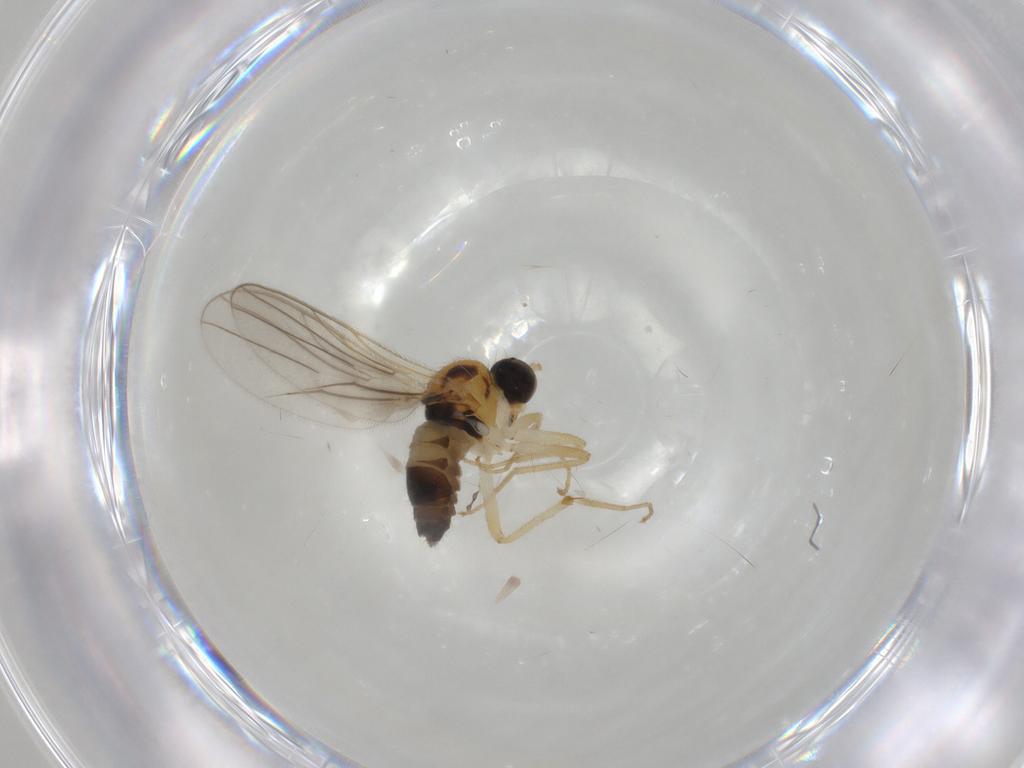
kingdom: Animalia
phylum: Arthropoda
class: Insecta
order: Diptera
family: Hybotidae
